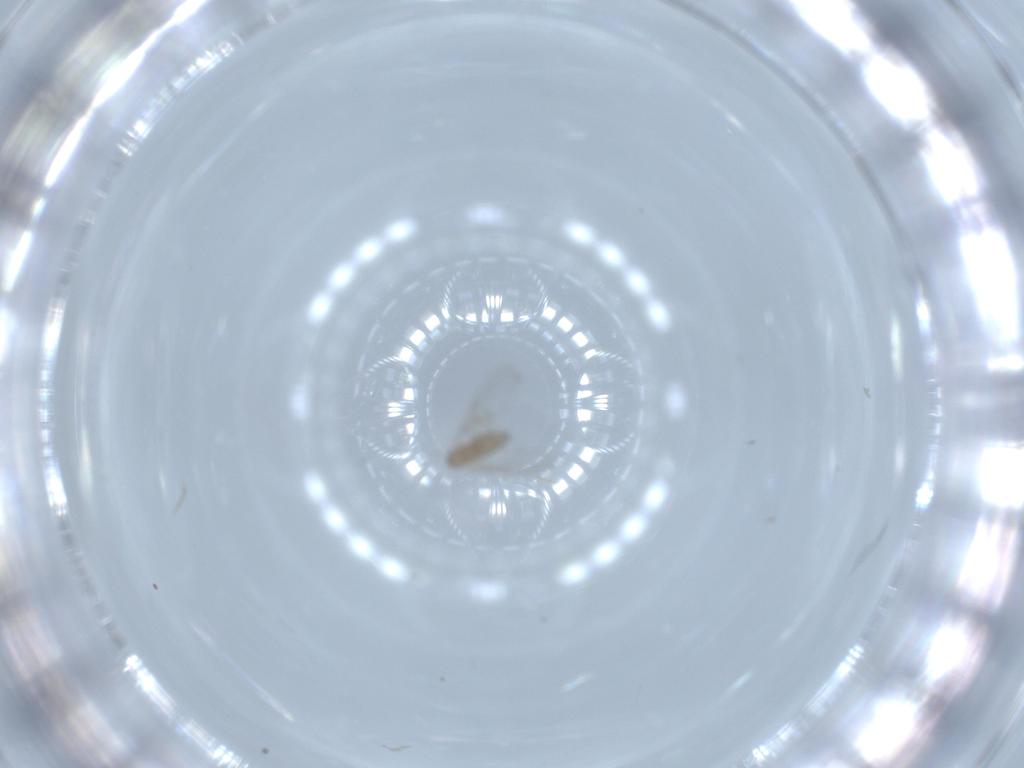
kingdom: Animalia
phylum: Arthropoda
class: Insecta
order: Diptera
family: Cecidomyiidae
